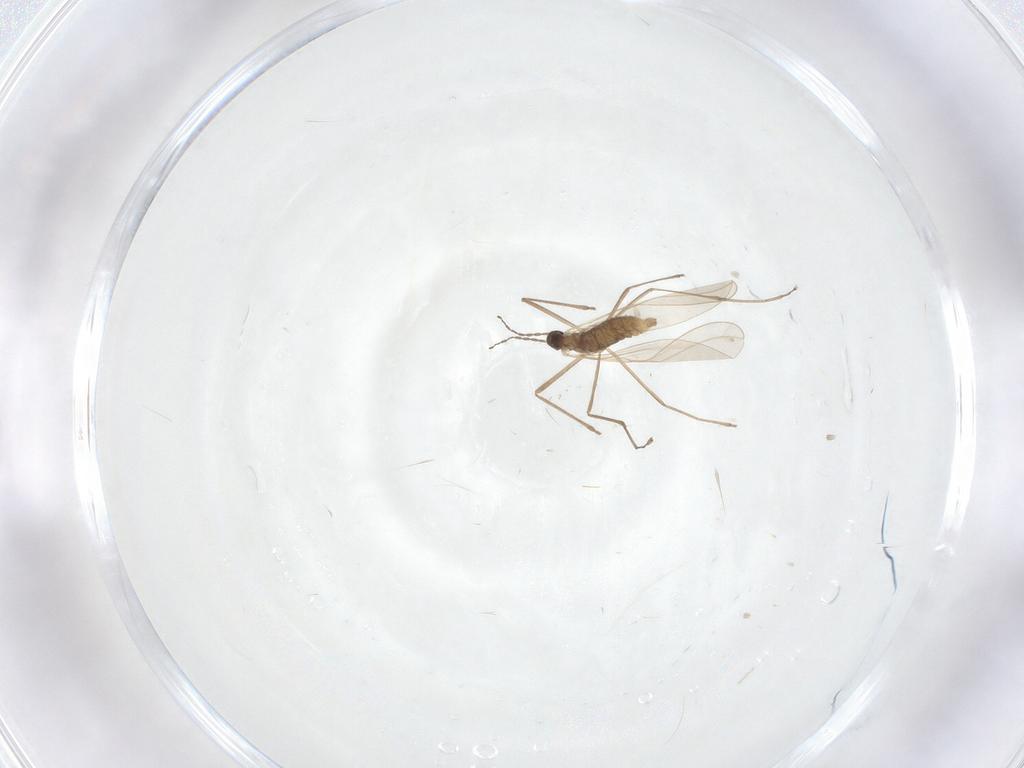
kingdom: Animalia
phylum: Arthropoda
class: Insecta
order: Diptera
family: Cecidomyiidae
